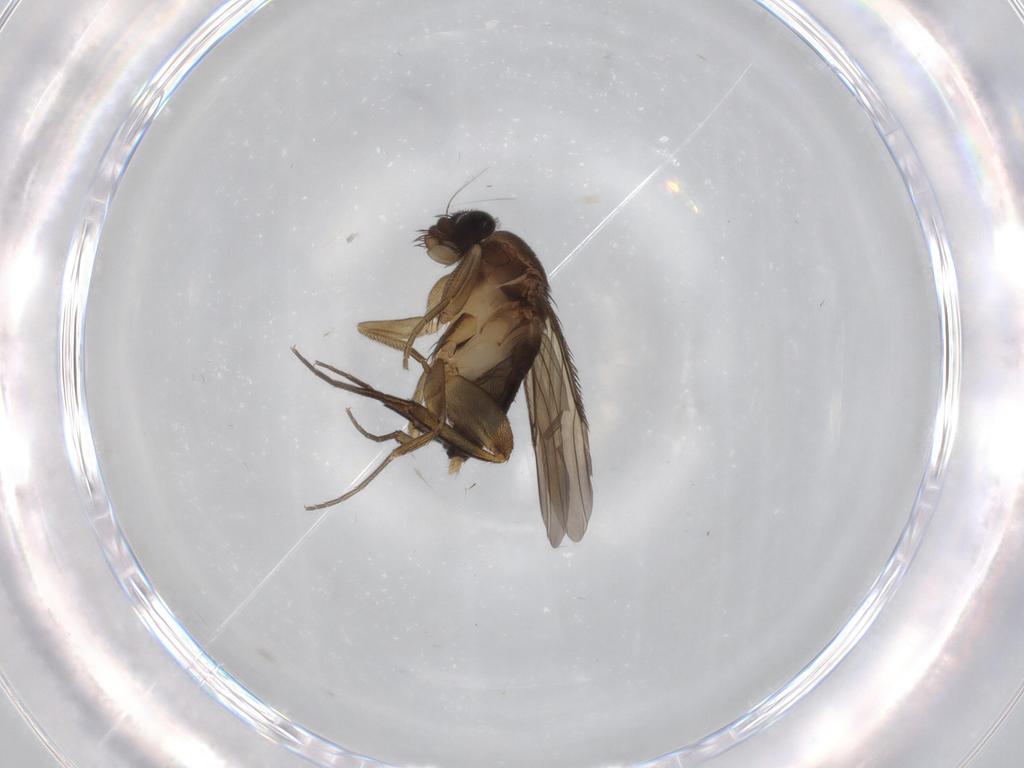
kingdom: Animalia
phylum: Arthropoda
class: Insecta
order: Diptera
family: Phoridae
